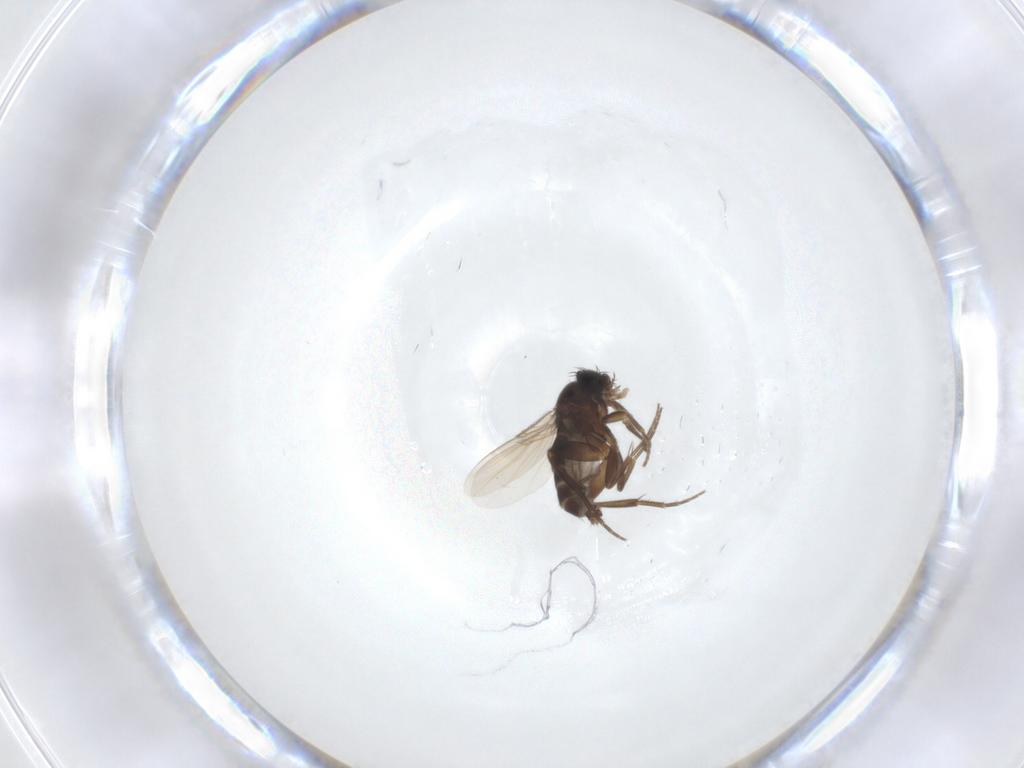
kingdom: Animalia
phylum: Arthropoda
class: Insecta
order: Diptera
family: Phoridae
